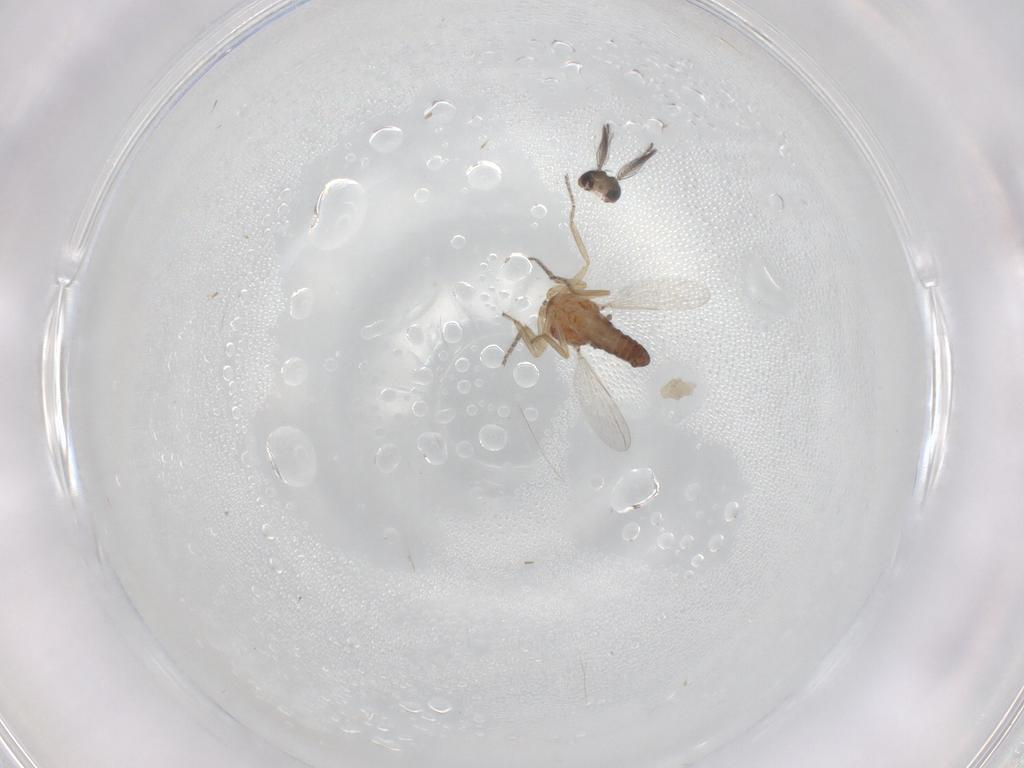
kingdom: Animalia
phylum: Arthropoda
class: Insecta
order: Diptera
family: Ceratopogonidae
